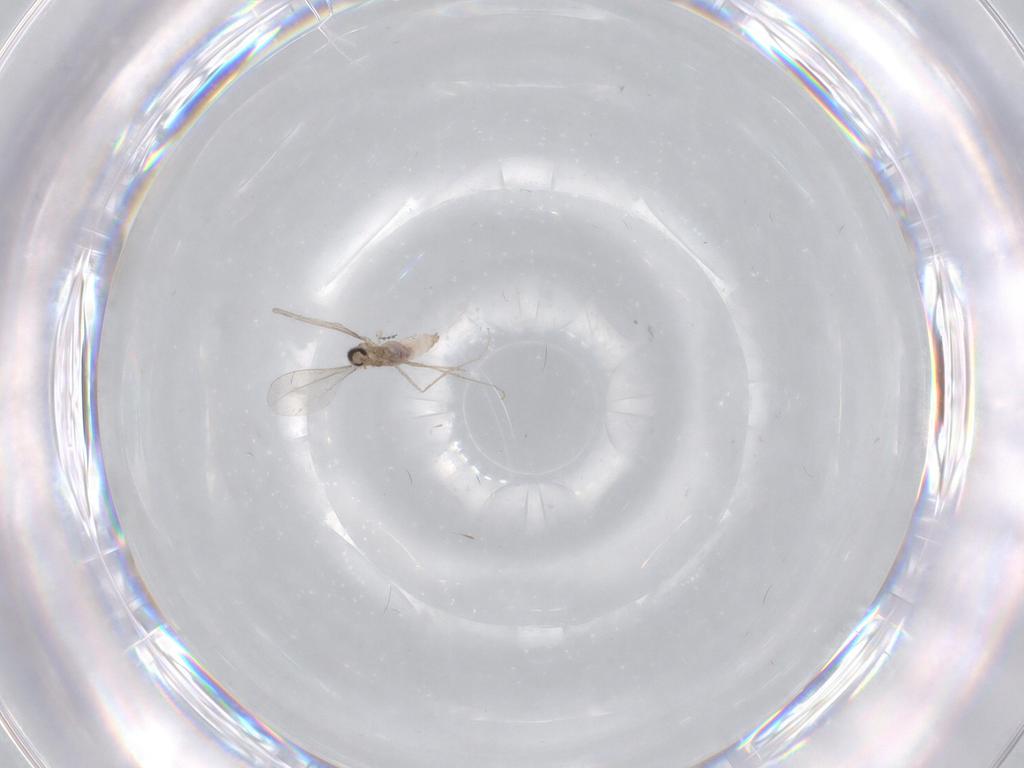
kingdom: Animalia
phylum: Arthropoda
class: Insecta
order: Diptera
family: Cecidomyiidae
